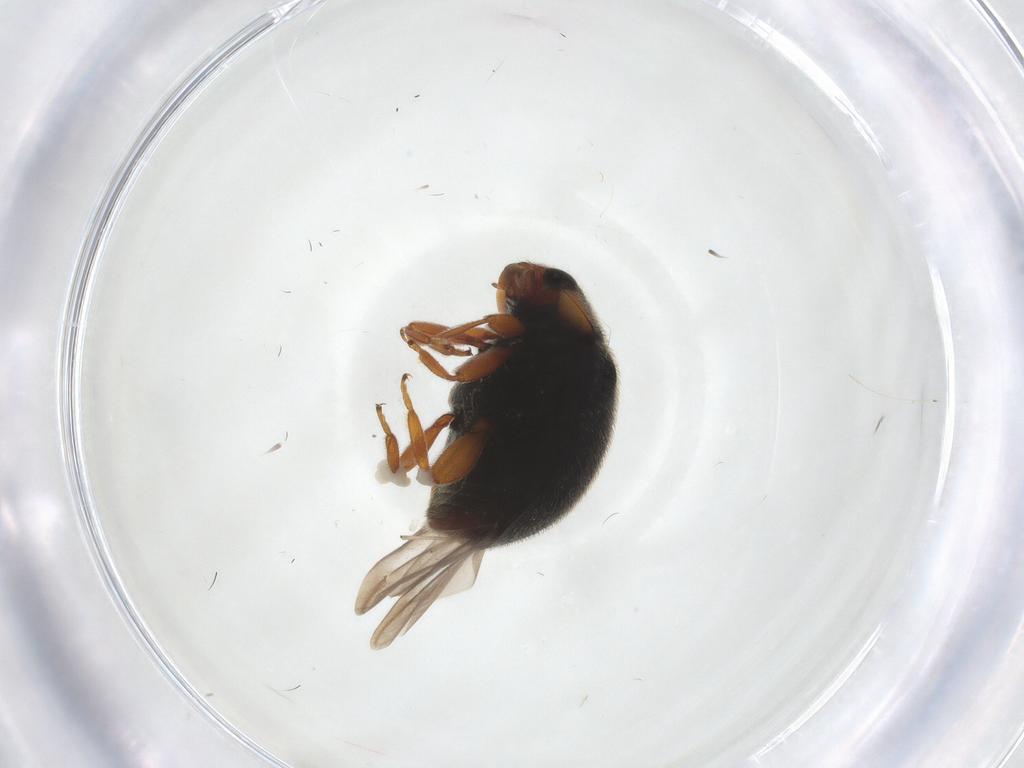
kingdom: Animalia
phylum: Arthropoda
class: Insecta
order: Coleoptera
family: Coccinellidae
